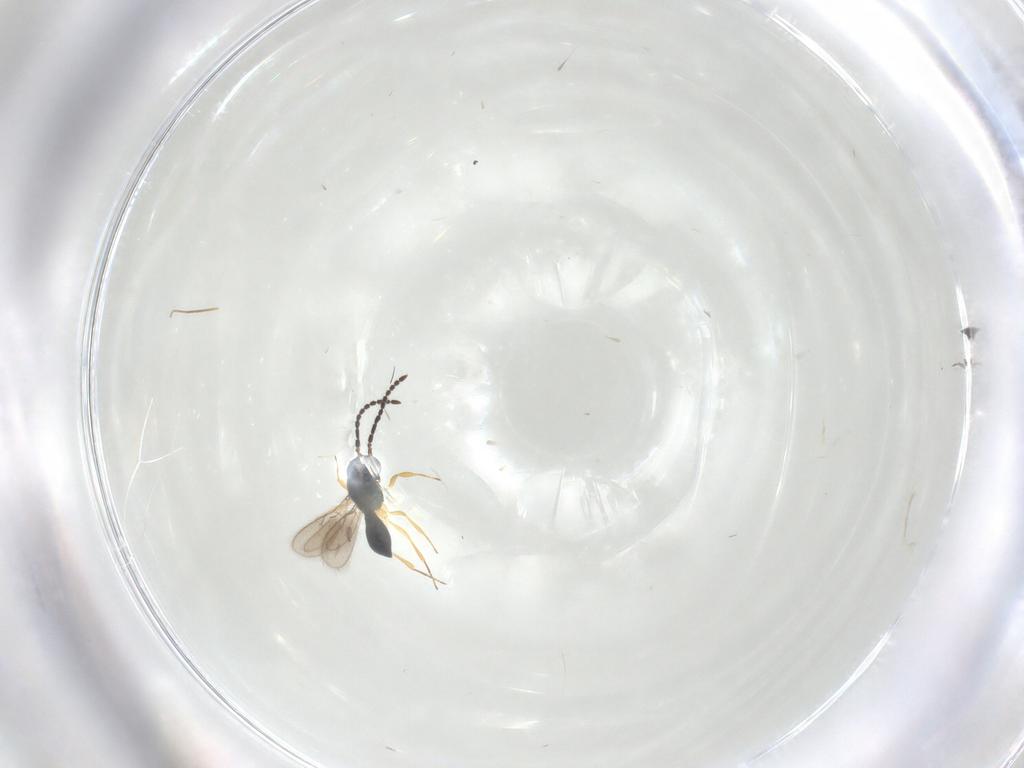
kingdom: Animalia
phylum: Arthropoda
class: Insecta
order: Hymenoptera
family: Scelionidae
